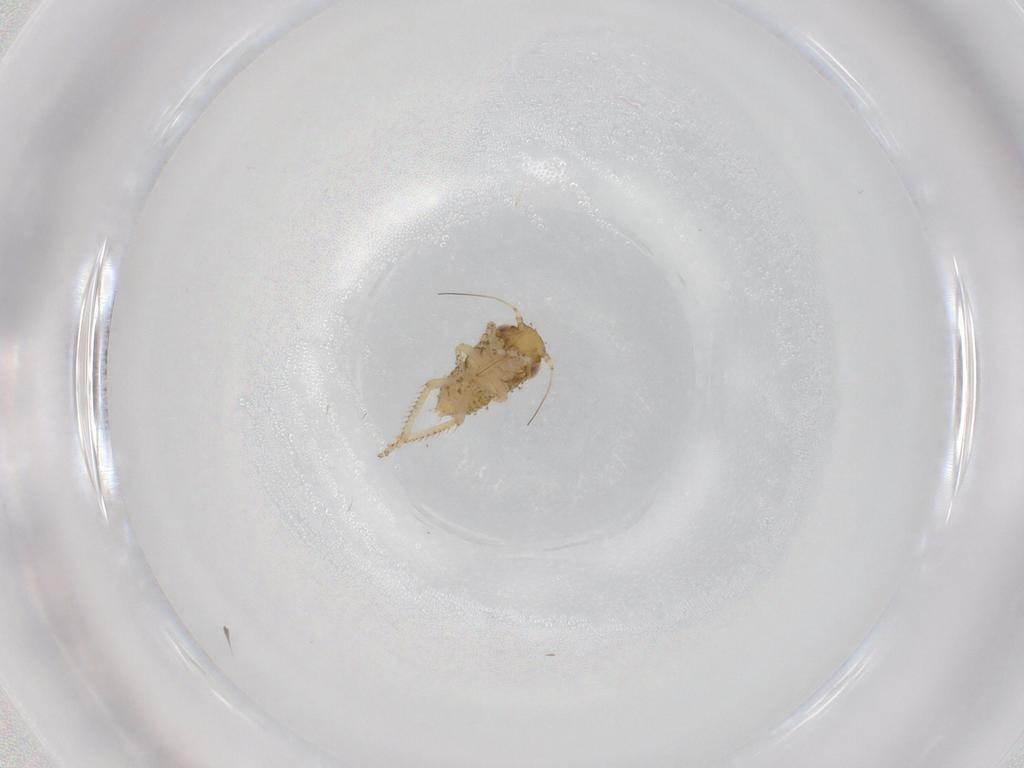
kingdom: Animalia
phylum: Arthropoda
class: Insecta
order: Hemiptera
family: Cicadellidae
